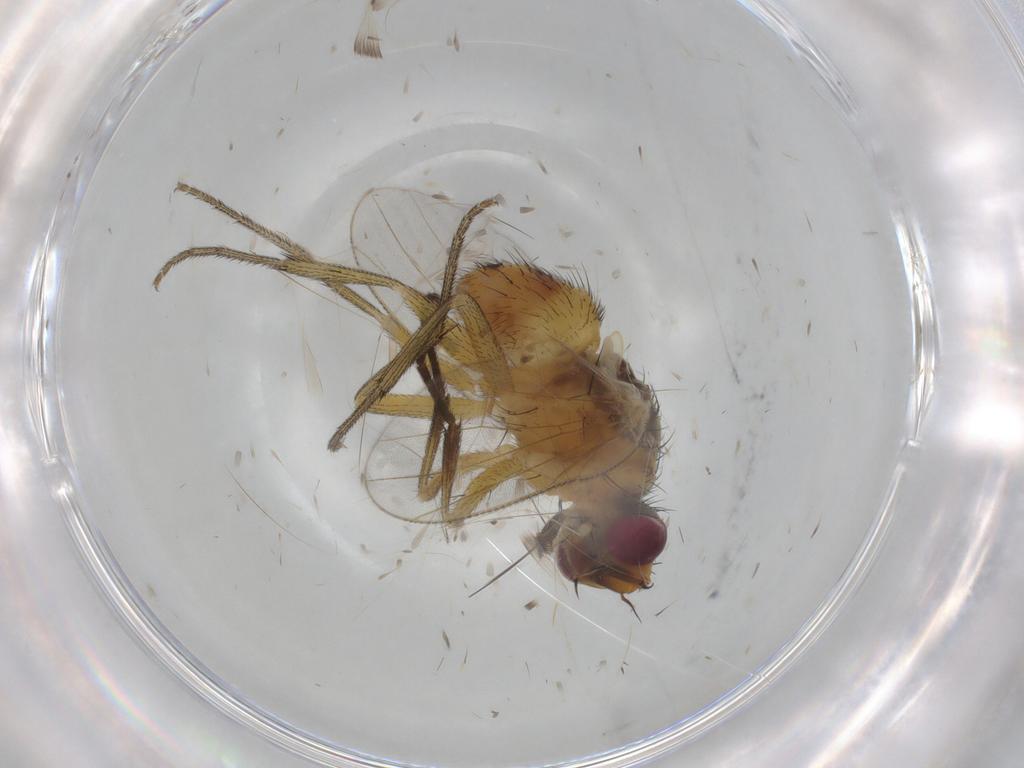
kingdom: Animalia
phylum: Arthropoda
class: Insecta
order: Diptera
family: Muscidae
